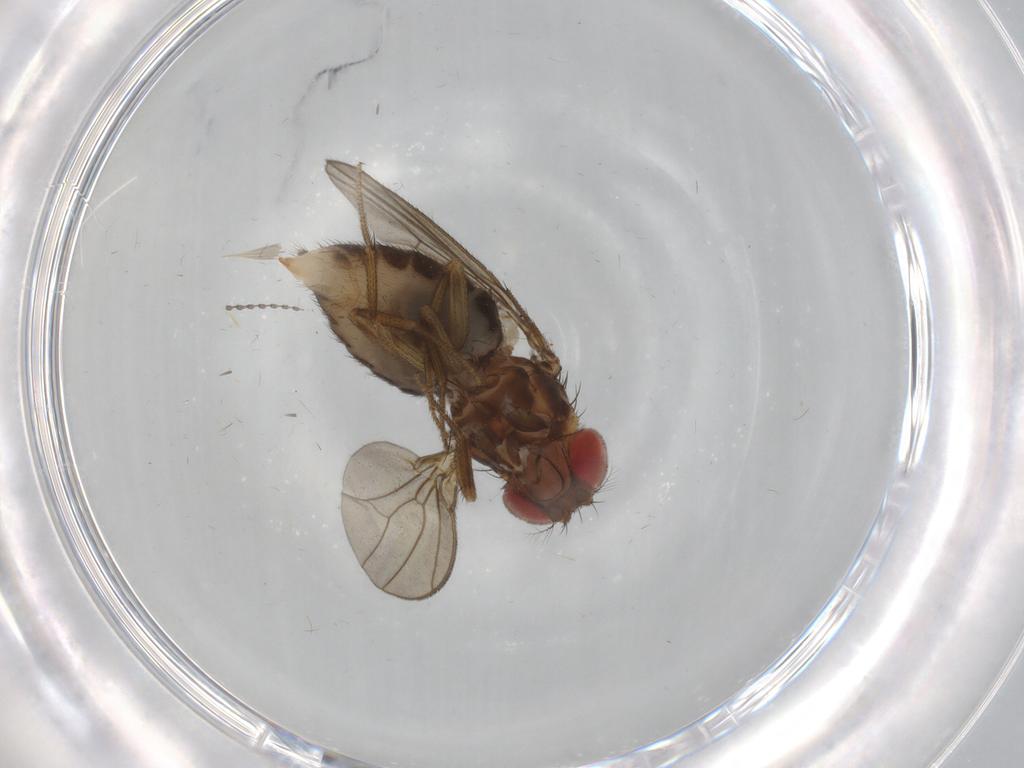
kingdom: Animalia
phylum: Arthropoda
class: Insecta
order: Diptera
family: Drosophilidae
